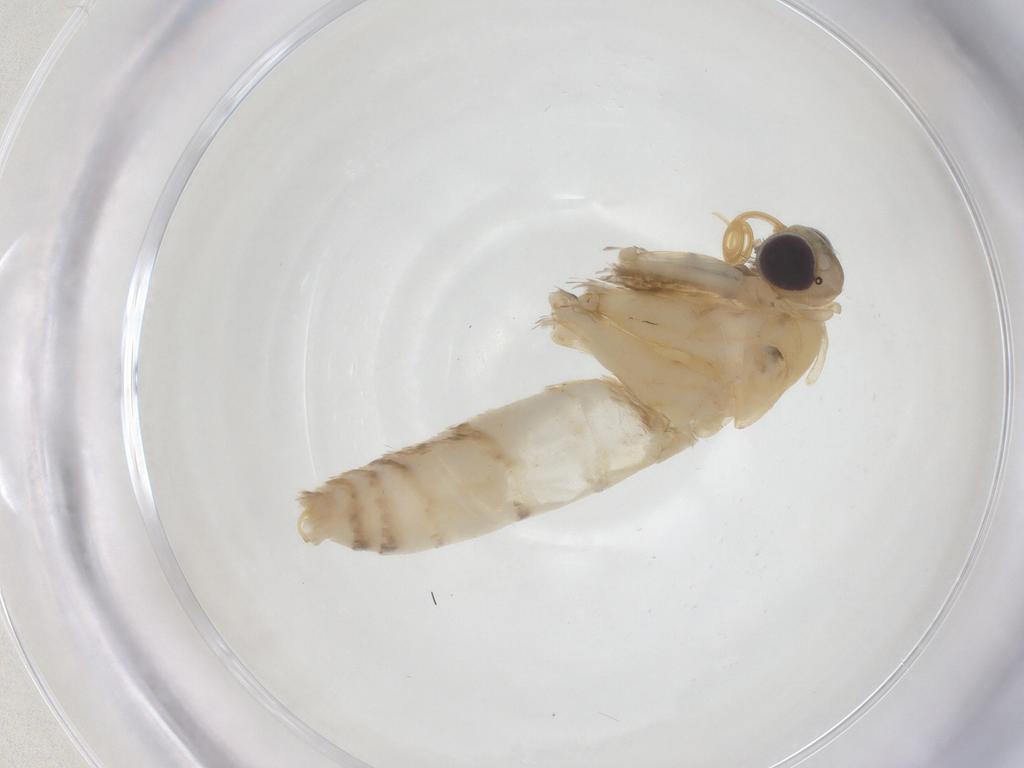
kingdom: Animalia
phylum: Arthropoda
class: Insecta
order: Lepidoptera
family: Erebidae
